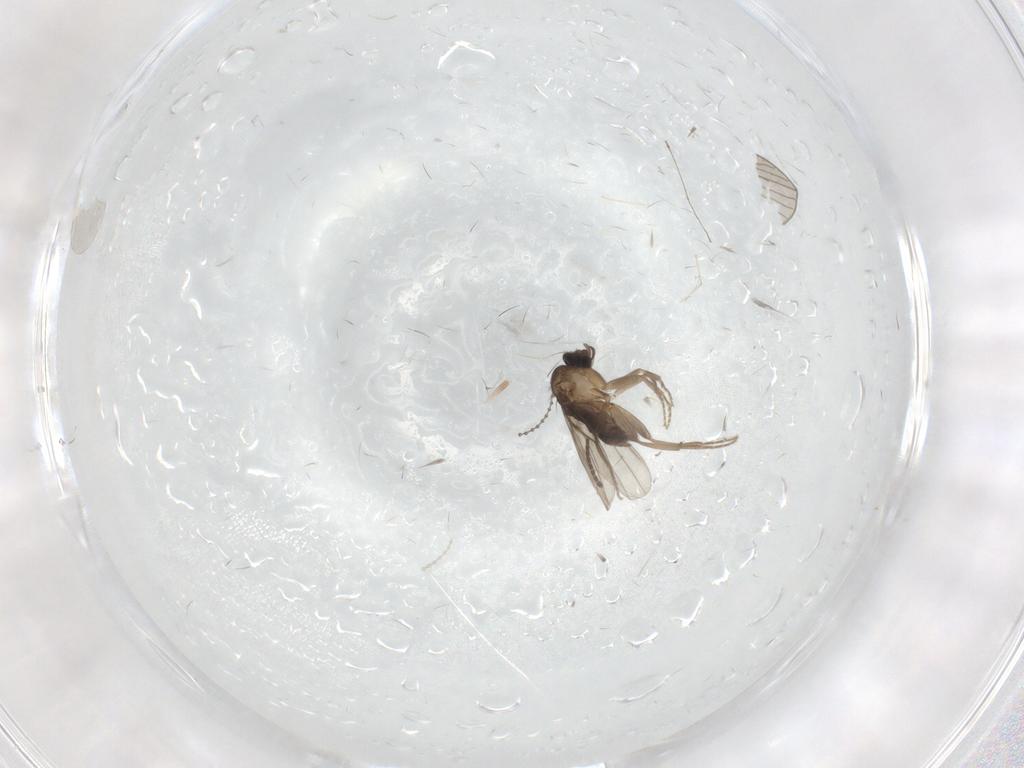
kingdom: Animalia
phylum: Arthropoda
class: Insecta
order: Diptera
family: Cecidomyiidae
